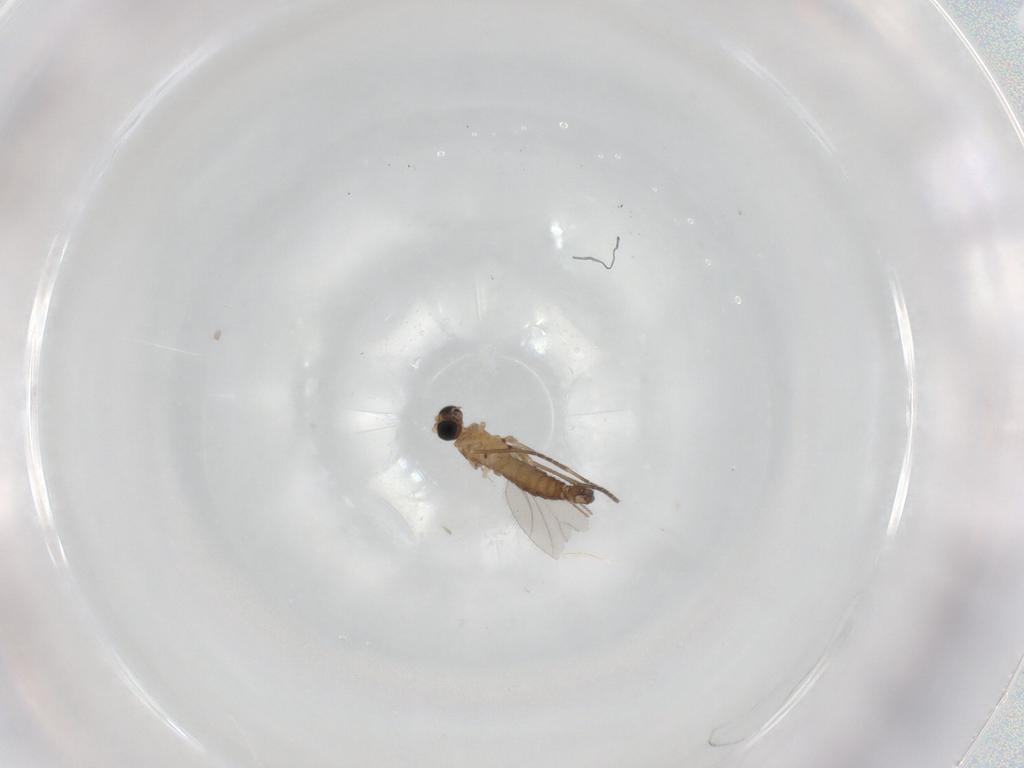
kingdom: Animalia
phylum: Arthropoda
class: Insecta
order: Diptera
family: Sciaridae
